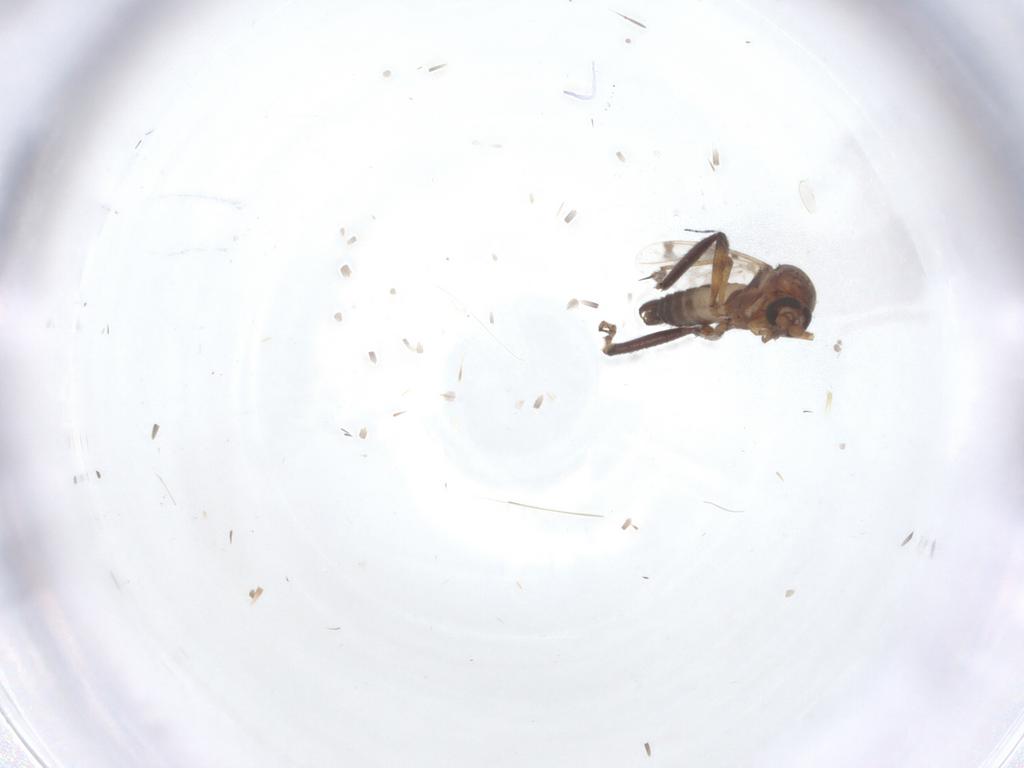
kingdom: Animalia
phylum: Arthropoda
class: Insecta
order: Diptera
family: Ceratopogonidae
